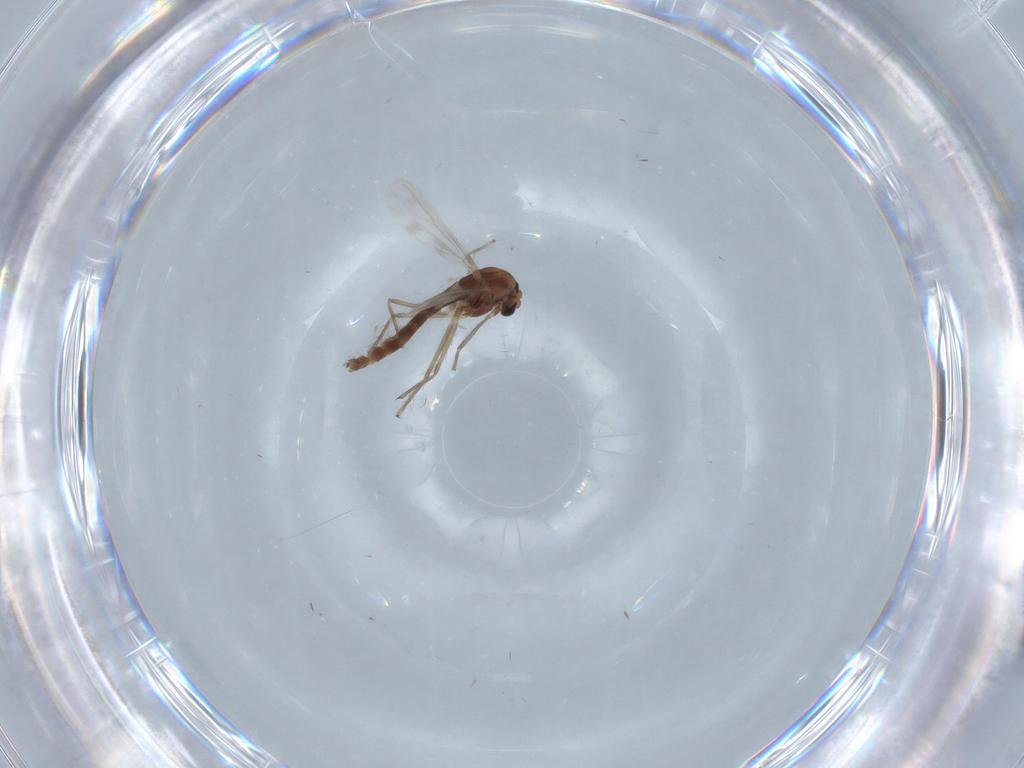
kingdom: Animalia
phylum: Arthropoda
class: Insecta
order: Diptera
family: Chironomidae
